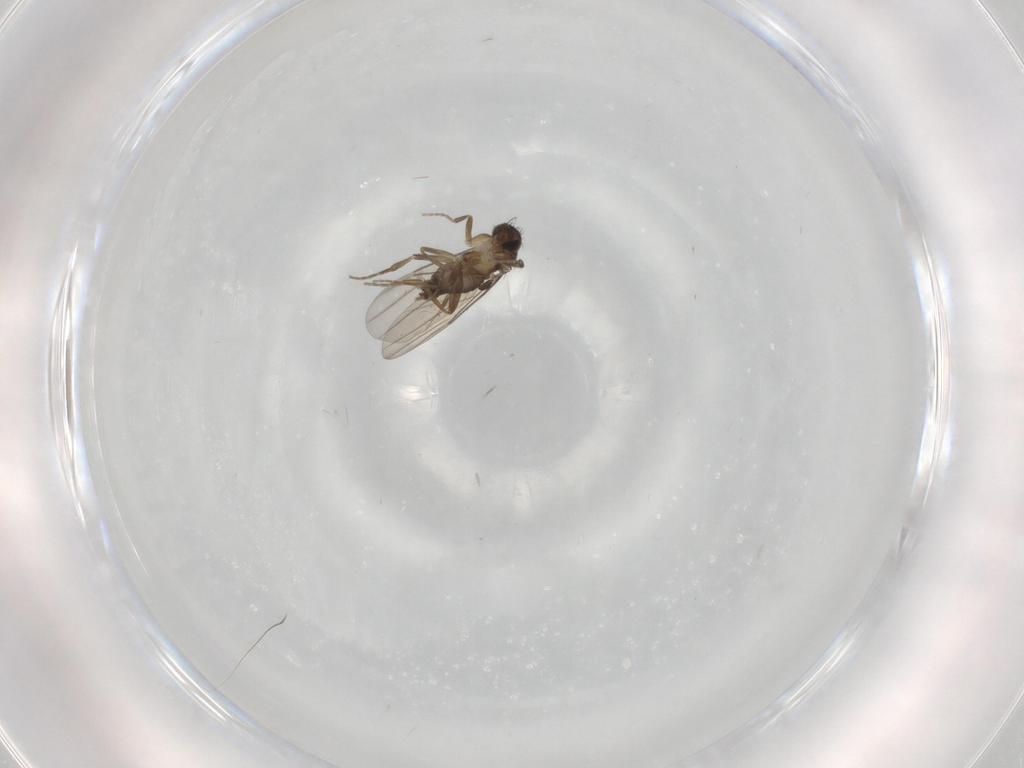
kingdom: Animalia
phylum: Arthropoda
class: Insecta
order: Diptera
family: Phoridae
